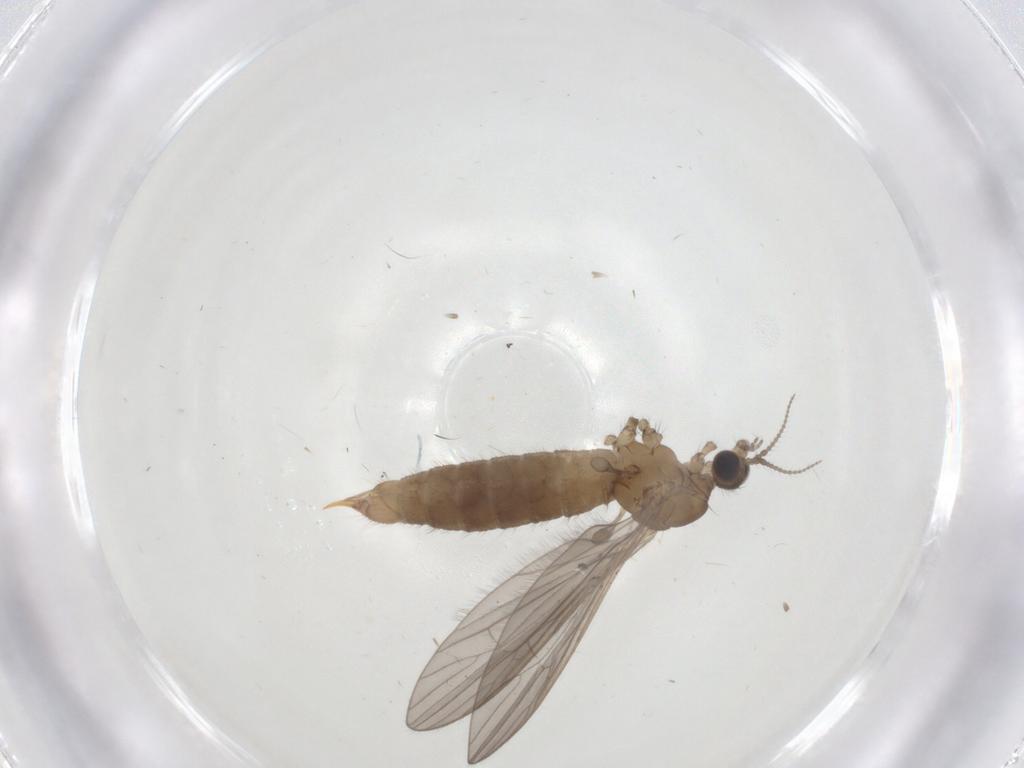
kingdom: Animalia
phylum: Arthropoda
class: Insecta
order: Diptera
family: Limoniidae
